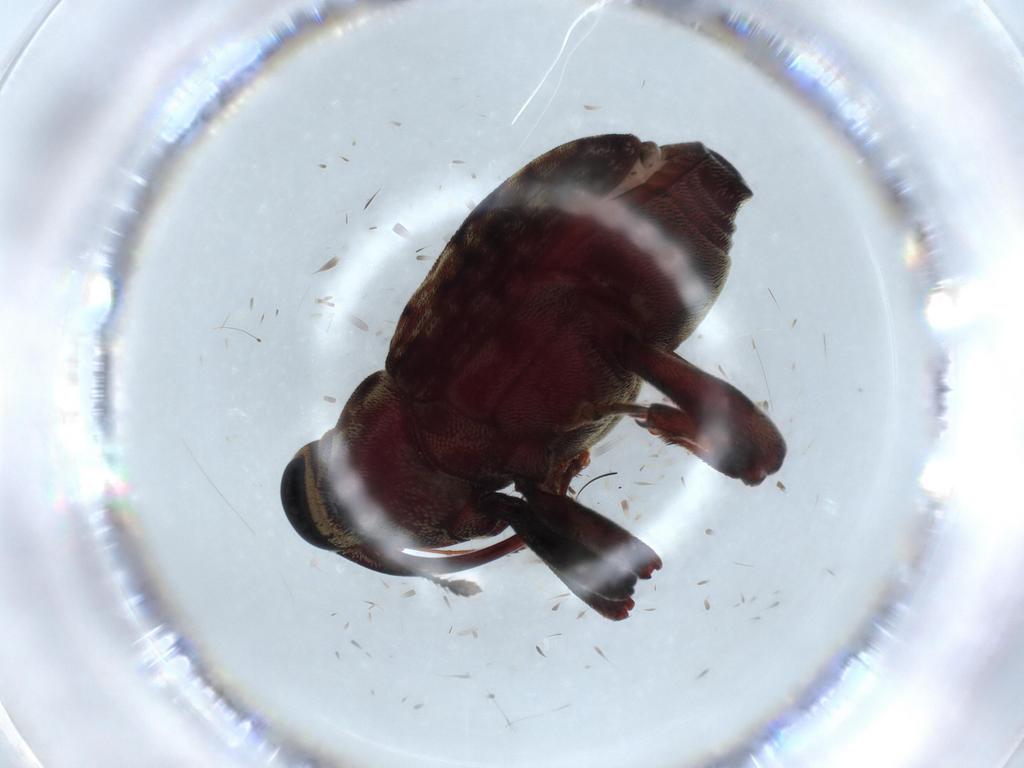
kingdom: Animalia
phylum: Arthropoda
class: Insecta
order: Coleoptera
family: Curculionidae
